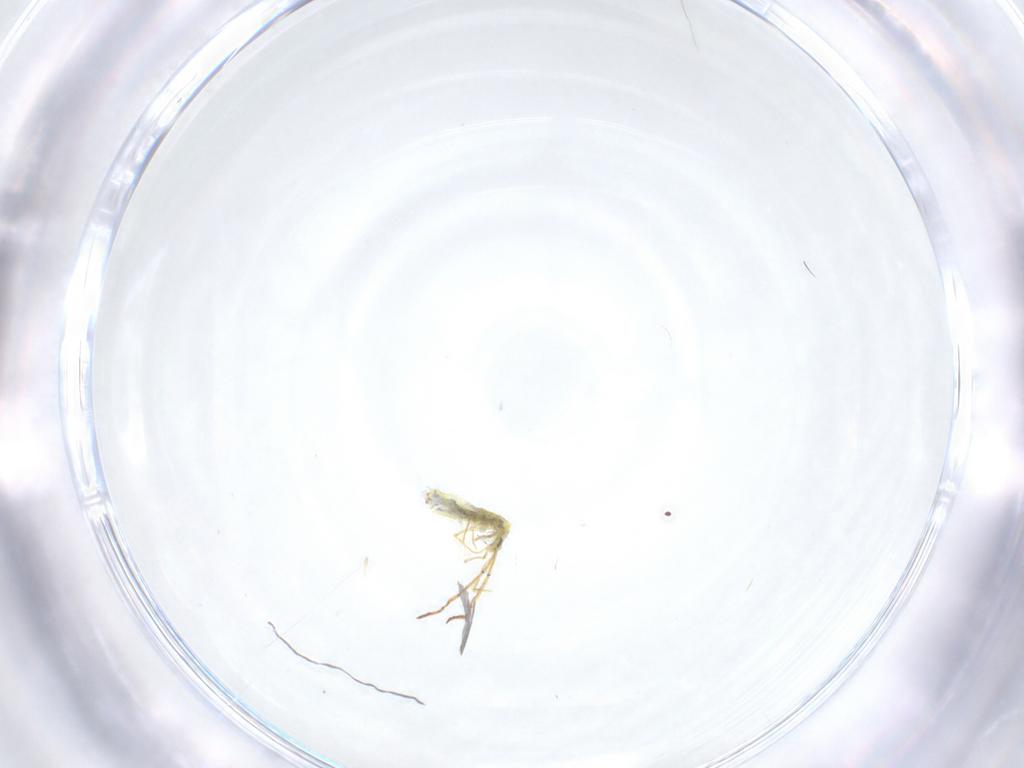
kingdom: Animalia
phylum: Arthropoda
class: Collembola
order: Entomobryomorpha
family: Paronellidae
